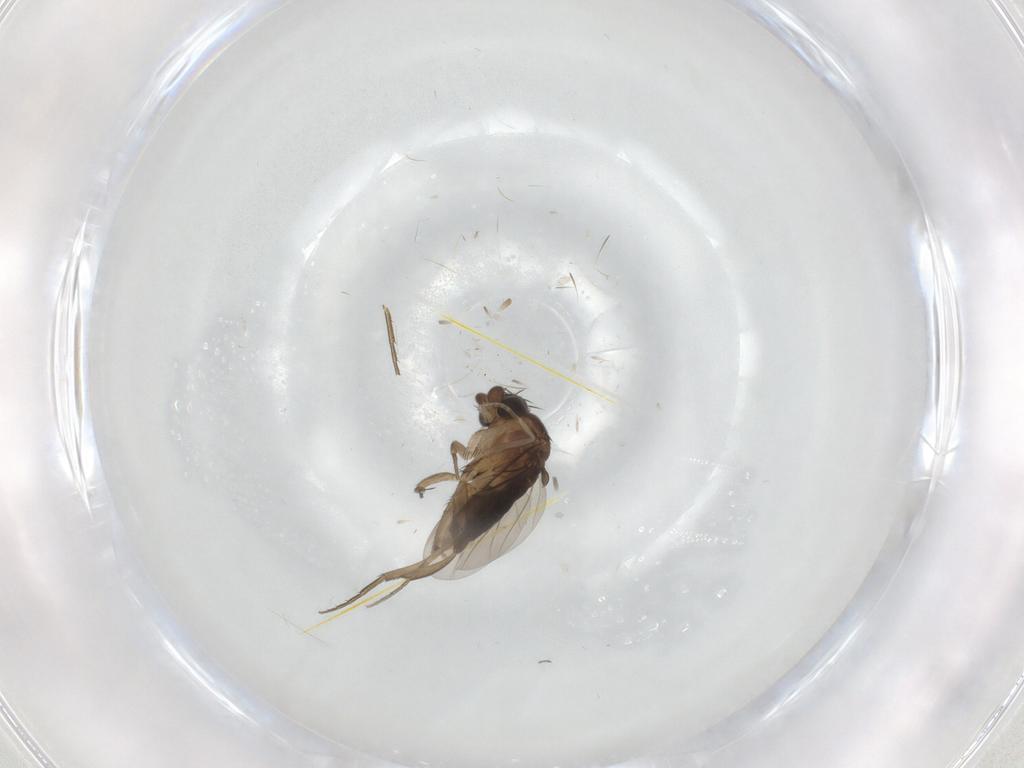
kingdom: Animalia
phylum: Arthropoda
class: Insecta
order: Diptera
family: Phoridae
